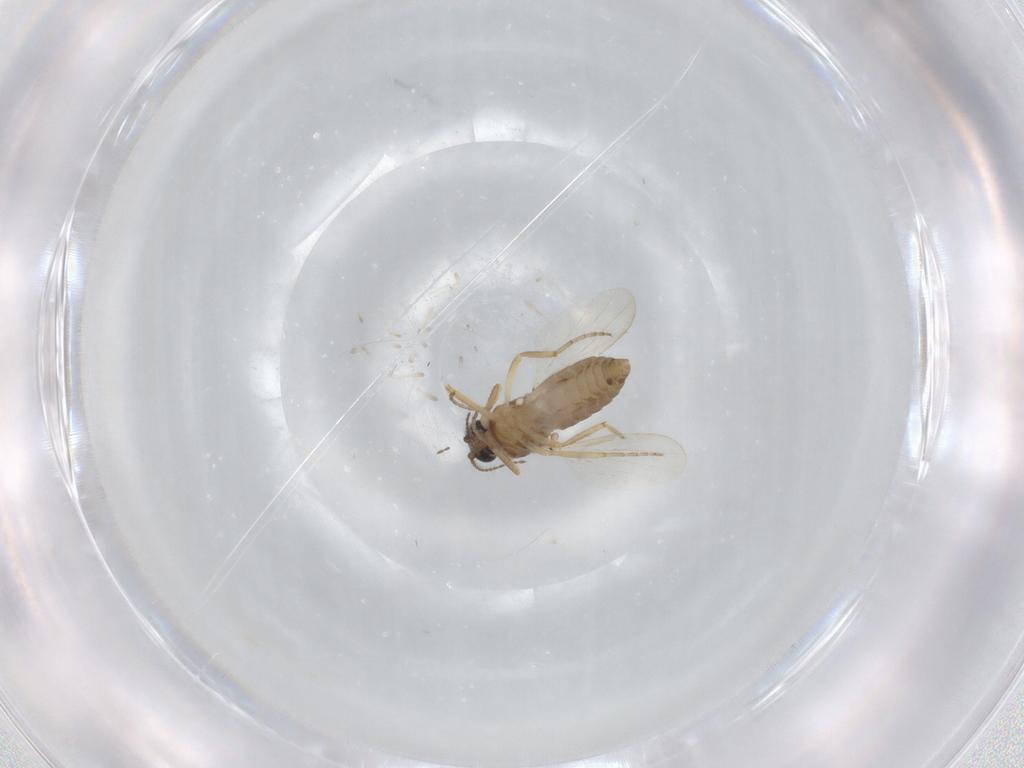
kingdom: Animalia
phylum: Arthropoda
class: Insecta
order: Diptera
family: Ceratopogonidae
